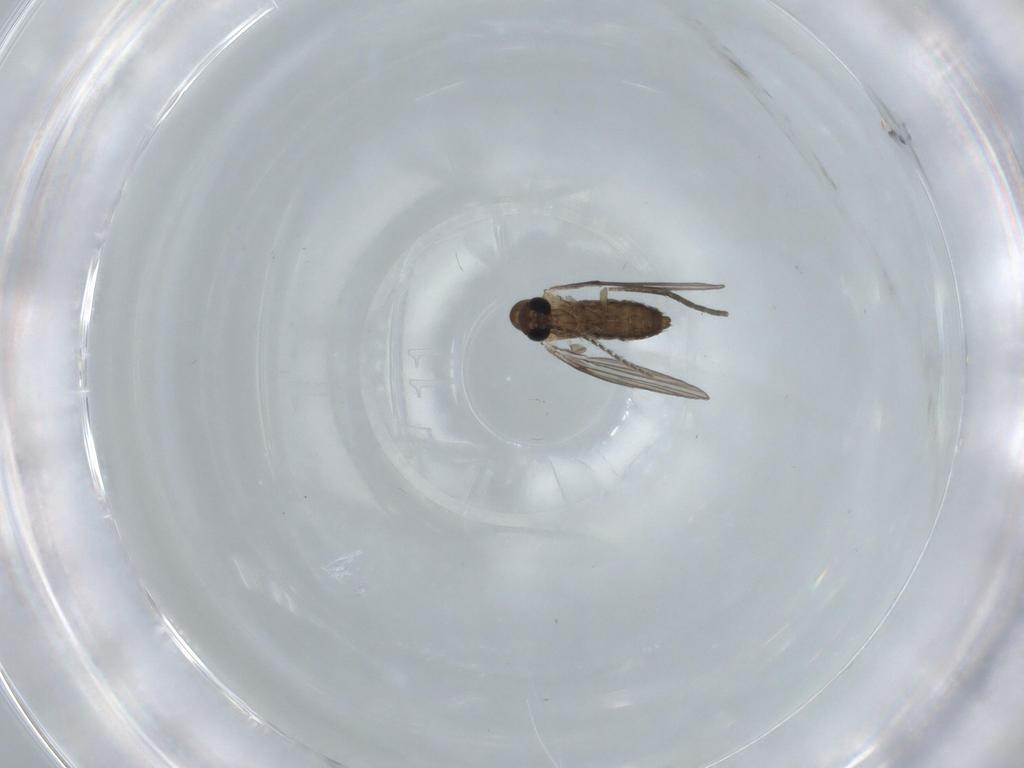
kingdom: Animalia
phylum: Arthropoda
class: Insecta
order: Diptera
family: Psychodidae
